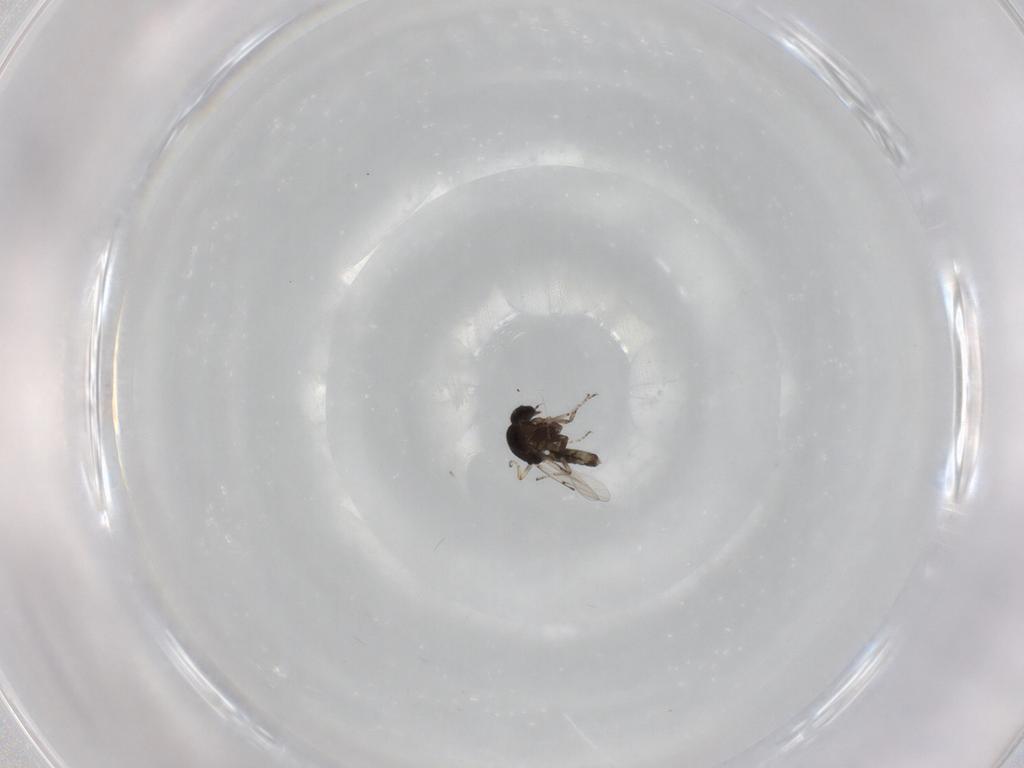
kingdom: Animalia
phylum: Arthropoda
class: Insecta
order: Diptera
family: Ceratopogonidae
